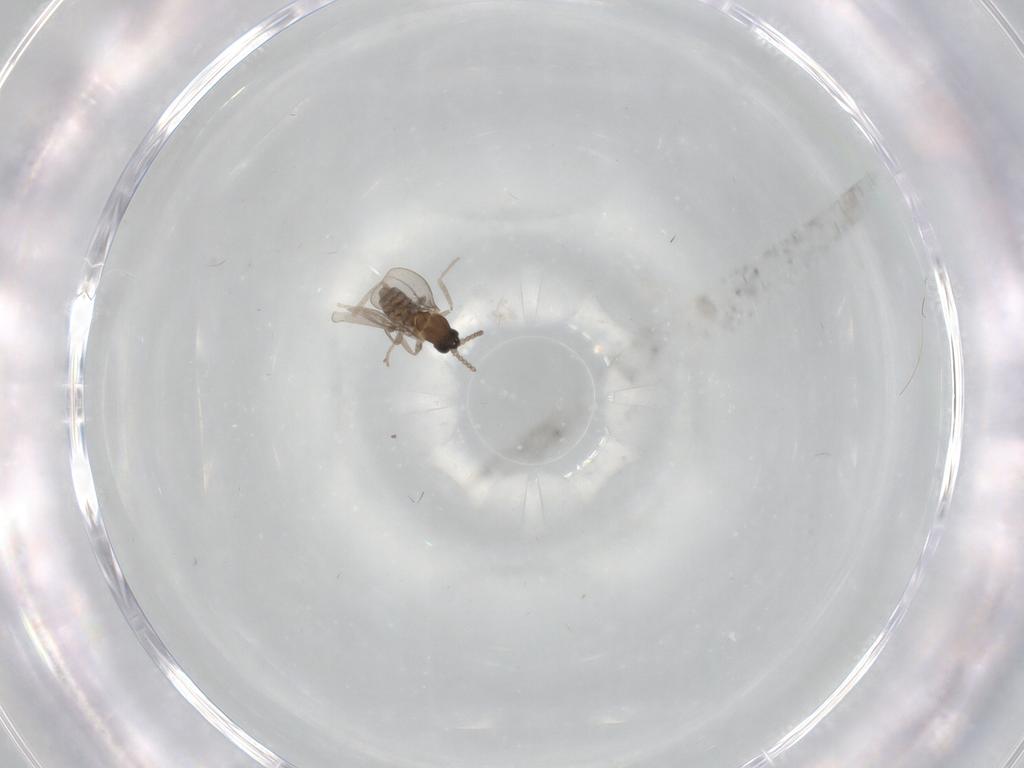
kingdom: Animalia
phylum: Arthropoda
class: Insecta
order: Diptera
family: Cecidomyiidae
